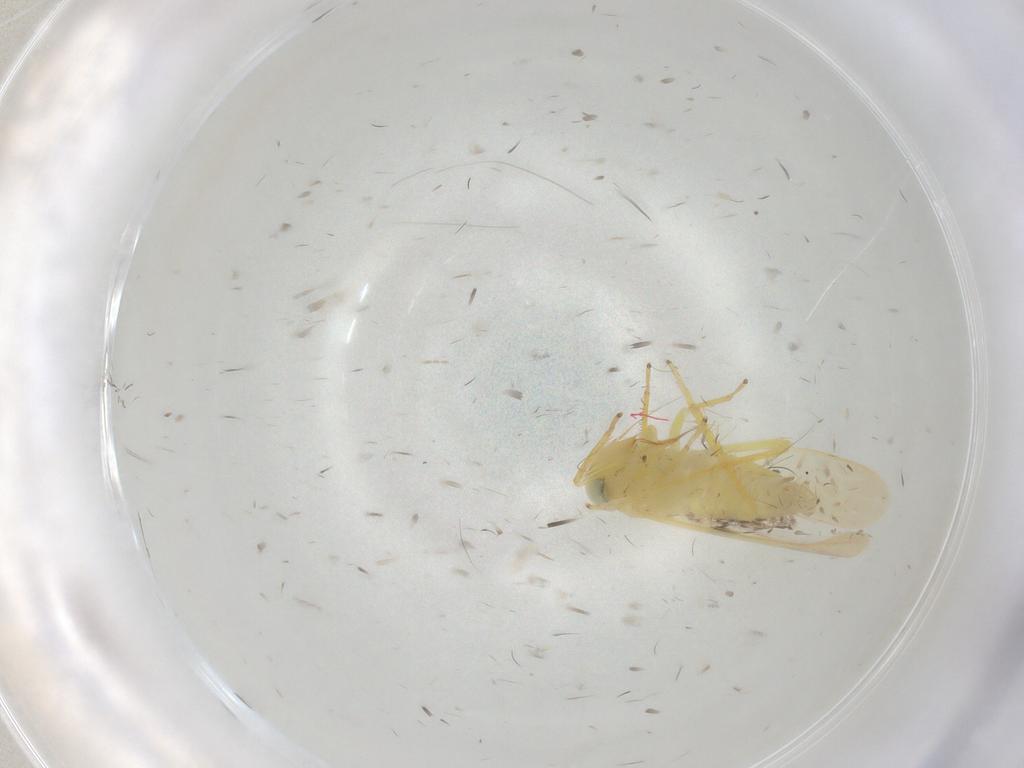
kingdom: Animalia
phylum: Arthropoda
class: Insecta
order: Hemiptera
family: Cicadellidae
